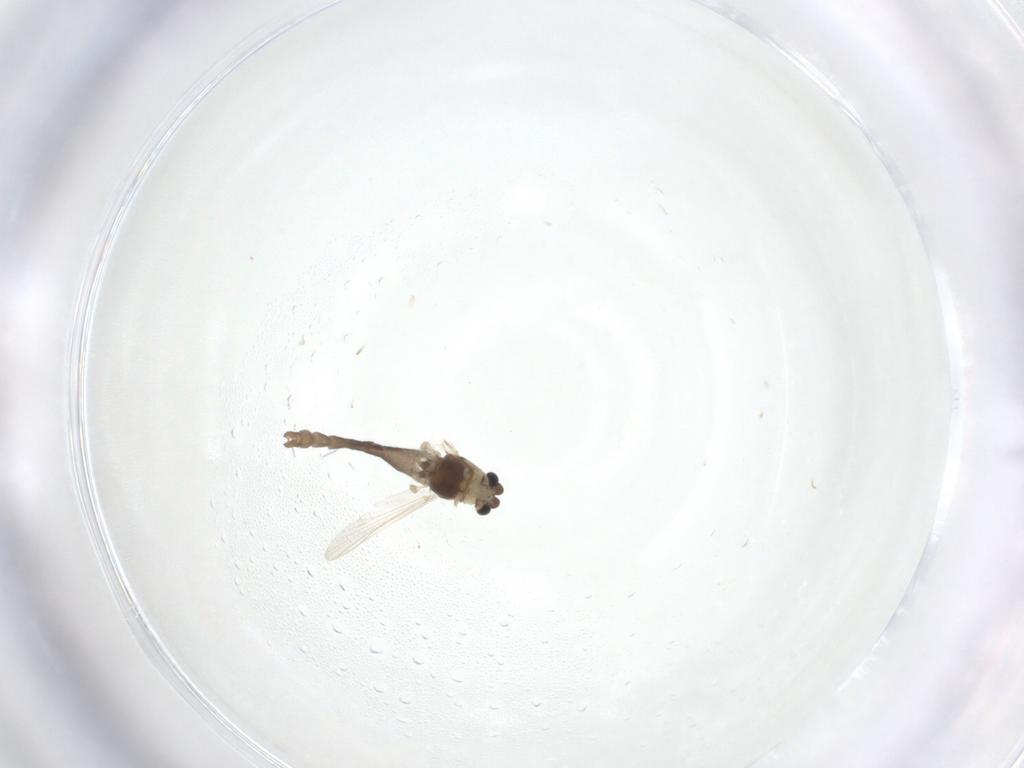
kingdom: Animalia
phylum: Arthropoda
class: Insecta
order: Diptera
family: Chironomidae
